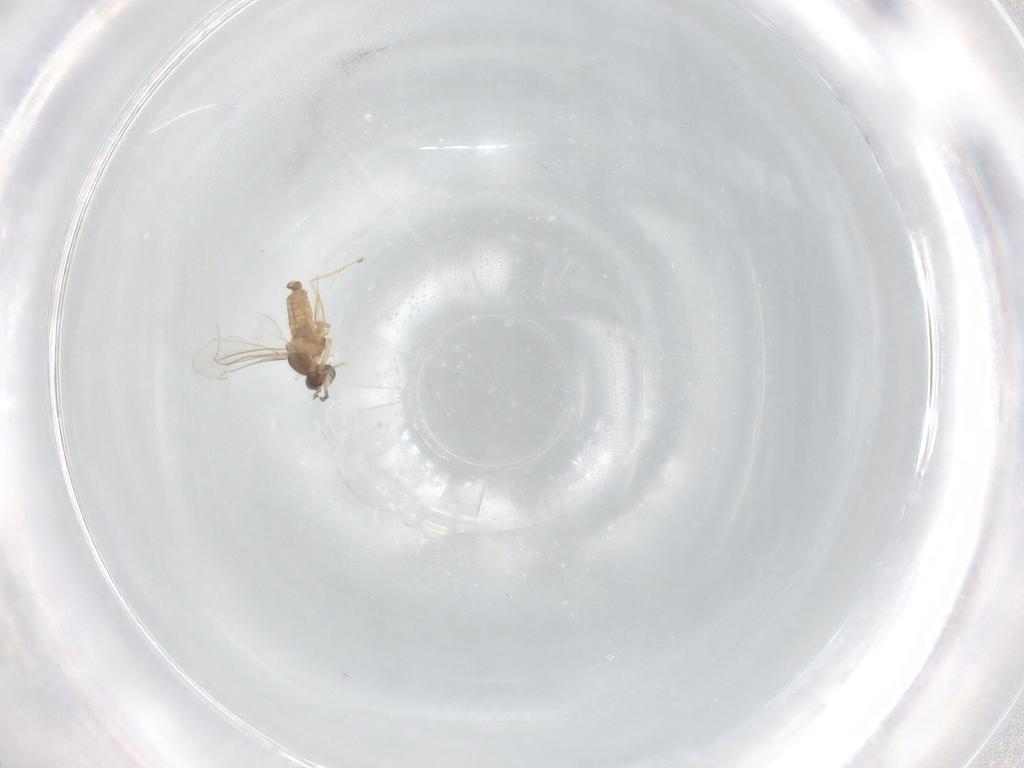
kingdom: Animalia
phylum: Arthropoda
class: Insecta
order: Diptera
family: Cecidomyiidae
